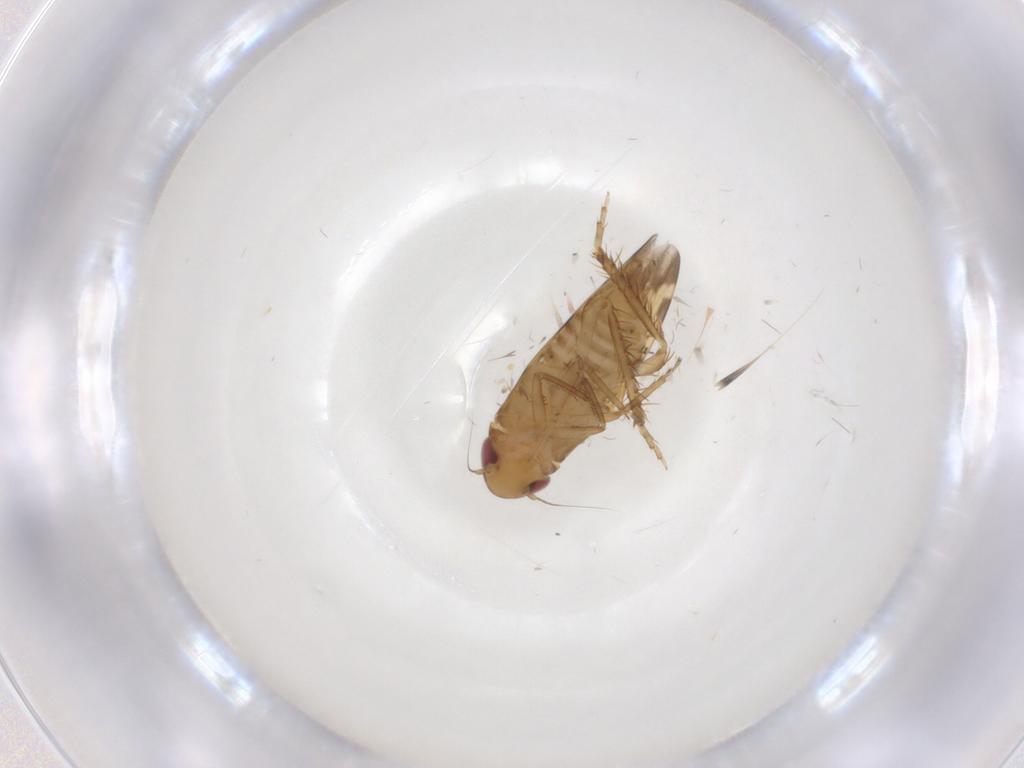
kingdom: Animalia
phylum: Arthropoda
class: Insecta
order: Hemiptera
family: Cicadellidae
